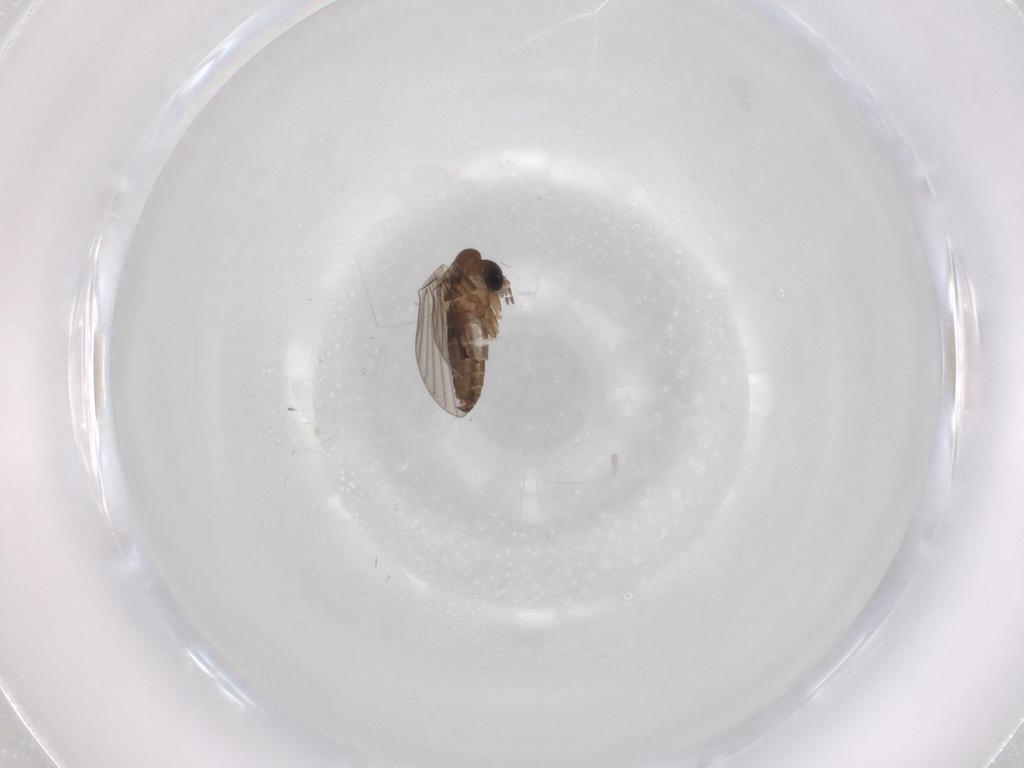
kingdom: Animalia
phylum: Arthropoda
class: Insecta
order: Diptera
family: Psychodidae
